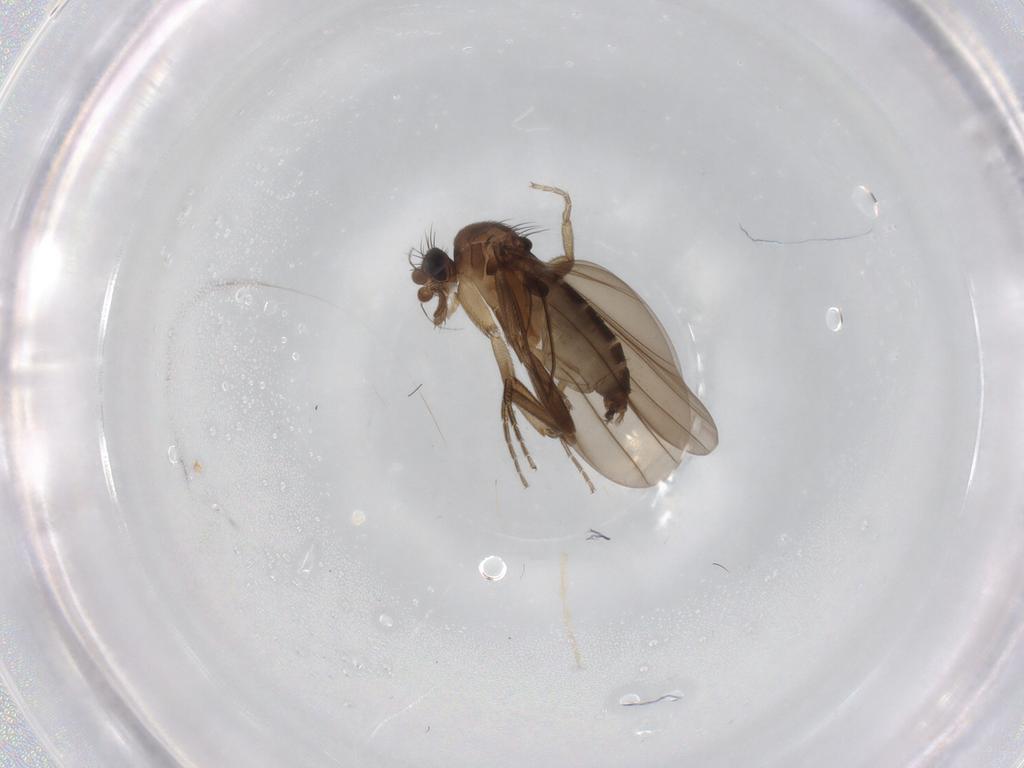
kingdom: Animalia
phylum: Arthropoda
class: Insecta
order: Diptera
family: Phoridae
